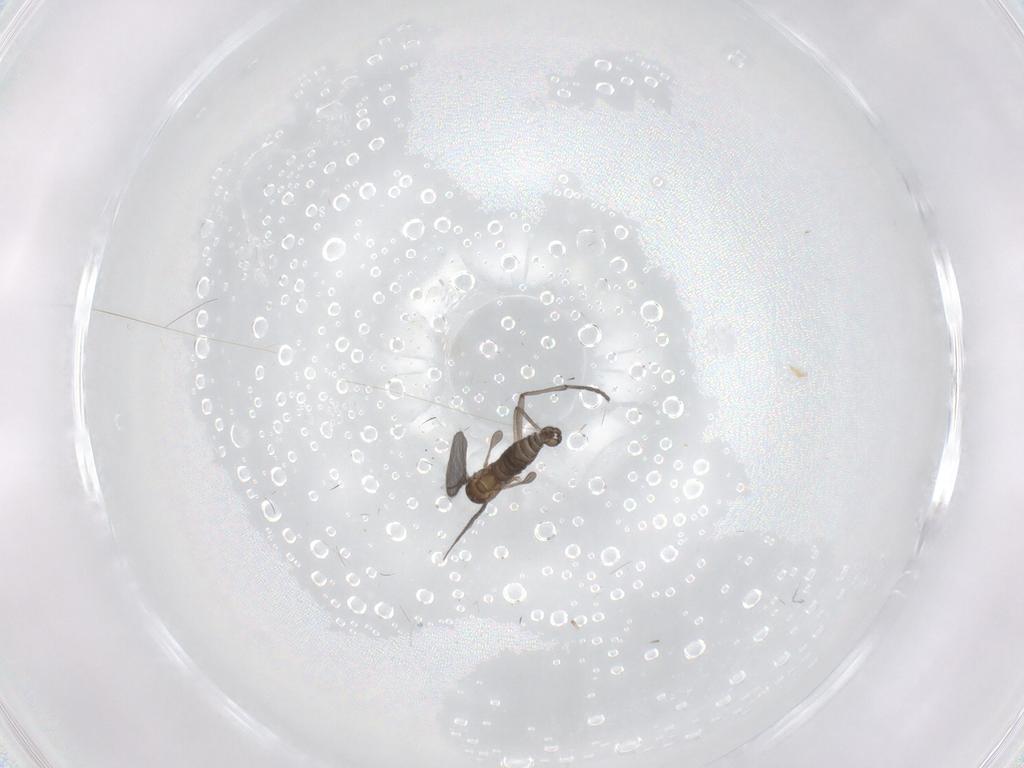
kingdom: Animalia
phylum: Arthropoda
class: Insecta
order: Diptera
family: Sciaridae
